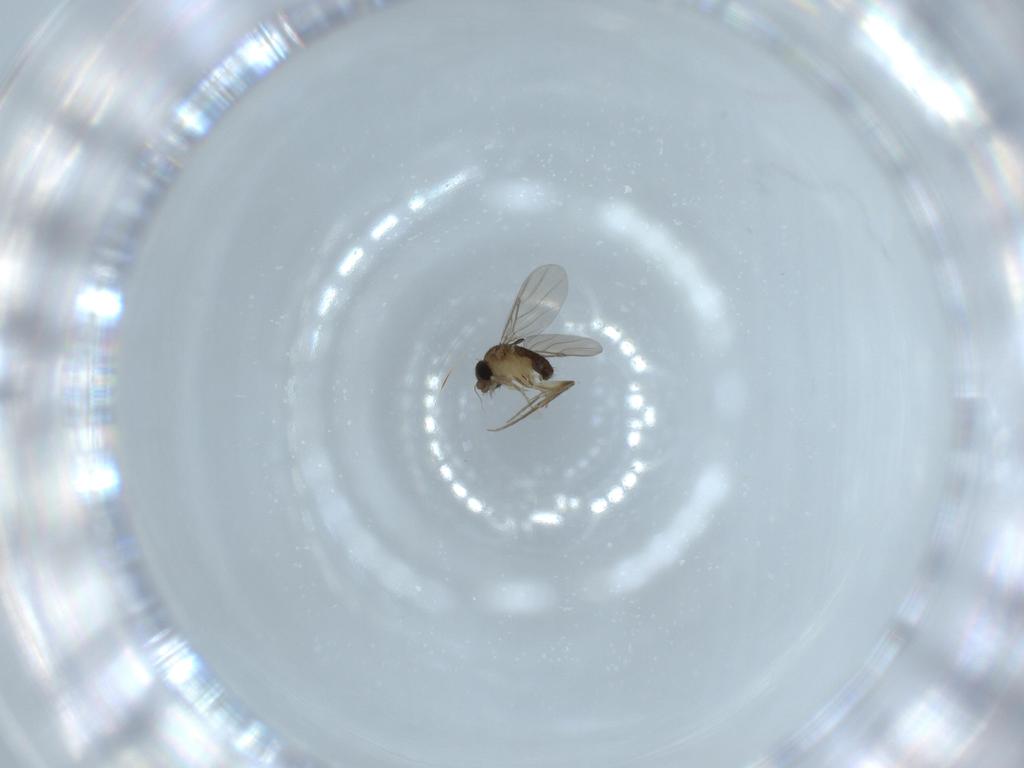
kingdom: Animalia
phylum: Arthropoda
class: Insecta
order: Diptera
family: Phoridae
